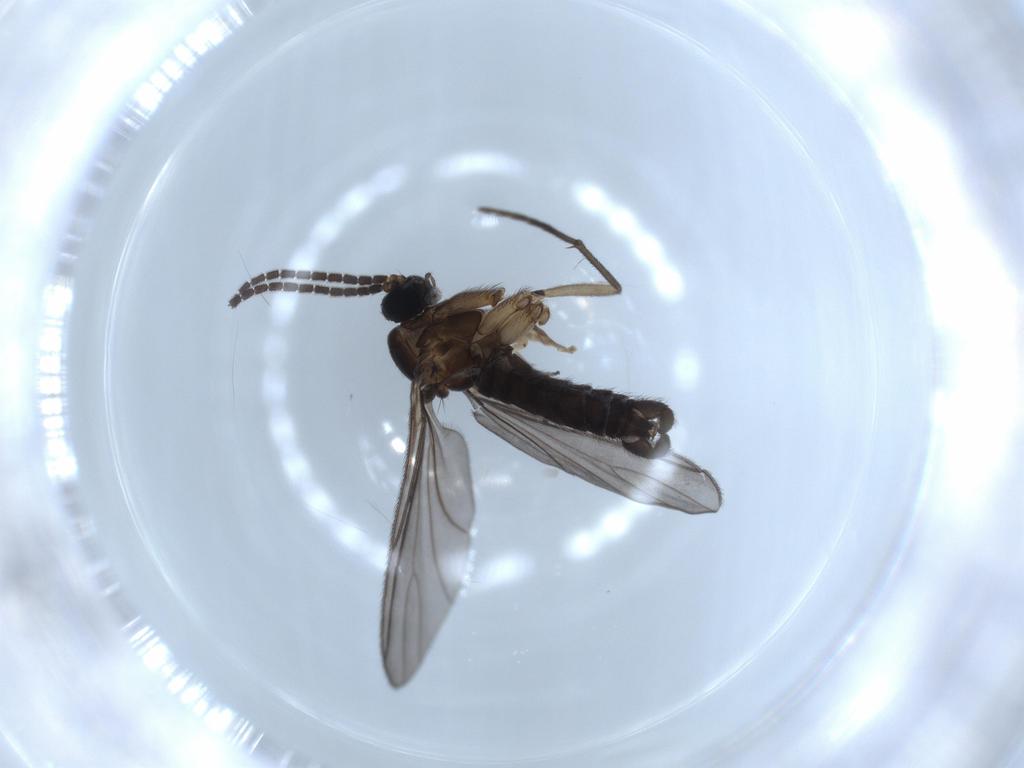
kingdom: Animalia
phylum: Arthropoda
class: Insecta
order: Diptera
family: Sciaridae
